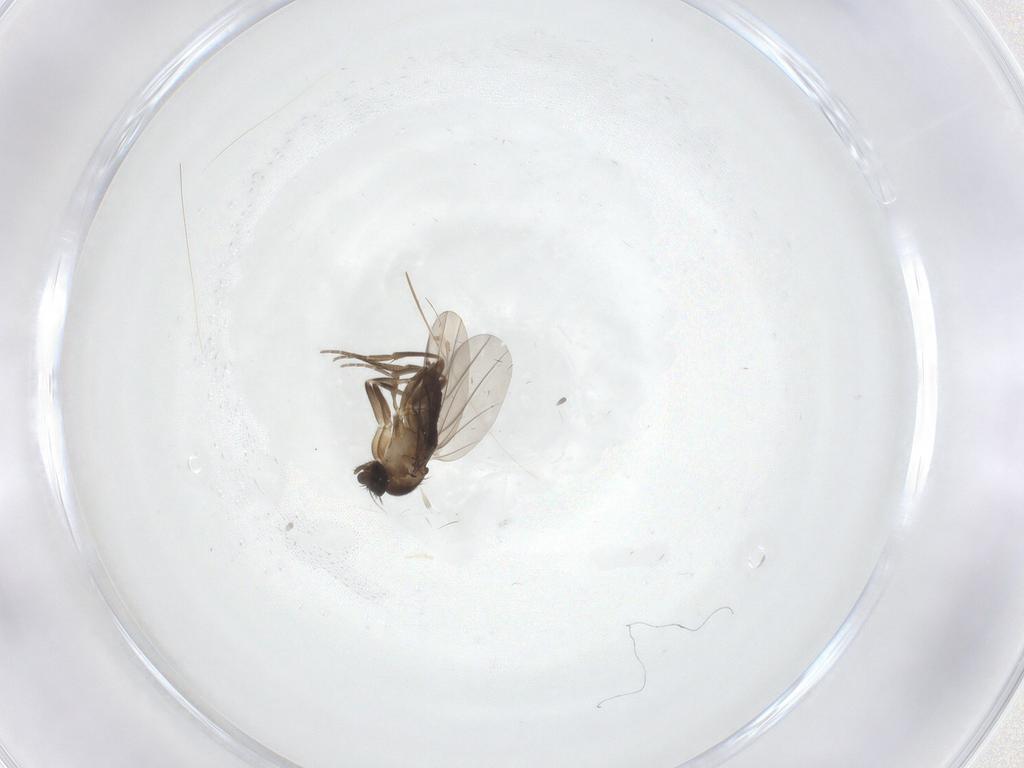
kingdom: Animalia
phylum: Arthropoda
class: Insecta
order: Diptera
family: Phoridae
